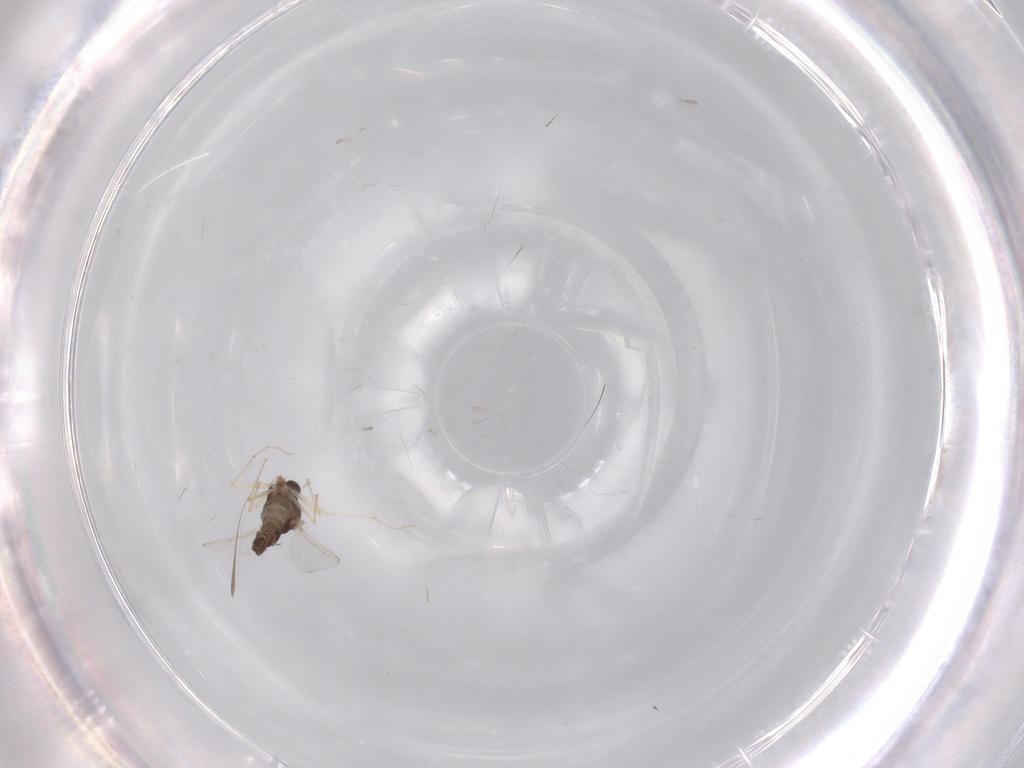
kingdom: Animalia
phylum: Arthropoda
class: Insecta
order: Diptera
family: Chironomidae
